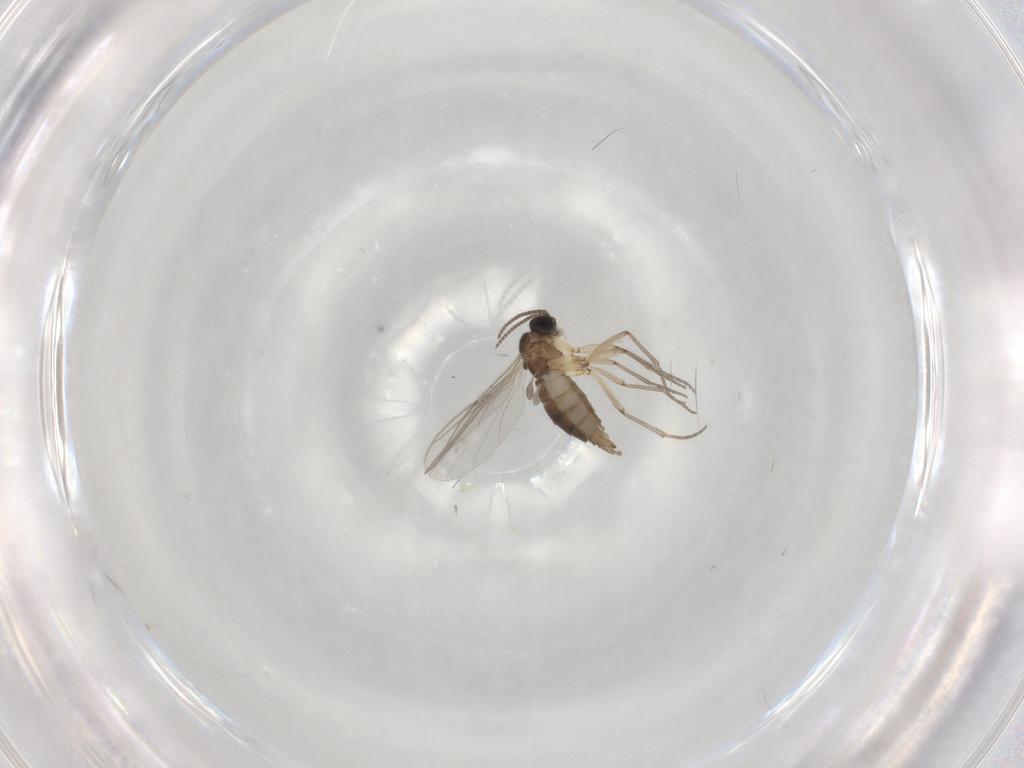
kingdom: Animalia
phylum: Arthropoda
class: Insecta
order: Diptera
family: Sciaridae
